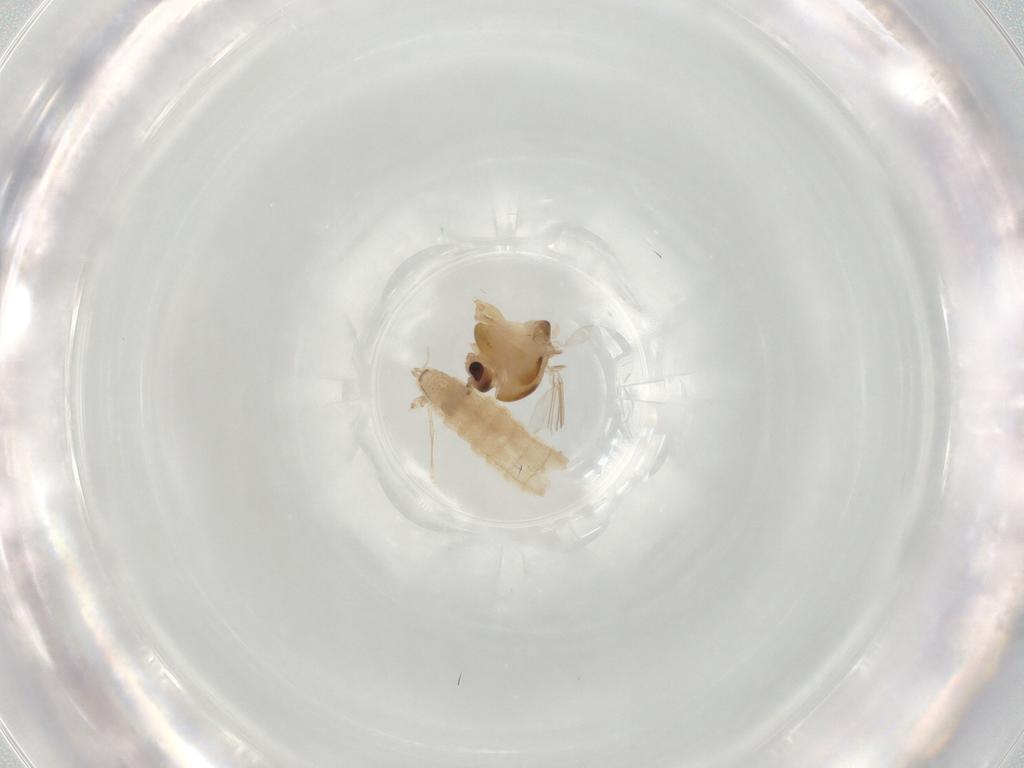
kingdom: Animalia
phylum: Arthropoda
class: Insecta
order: Diptera
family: Chironomidae
